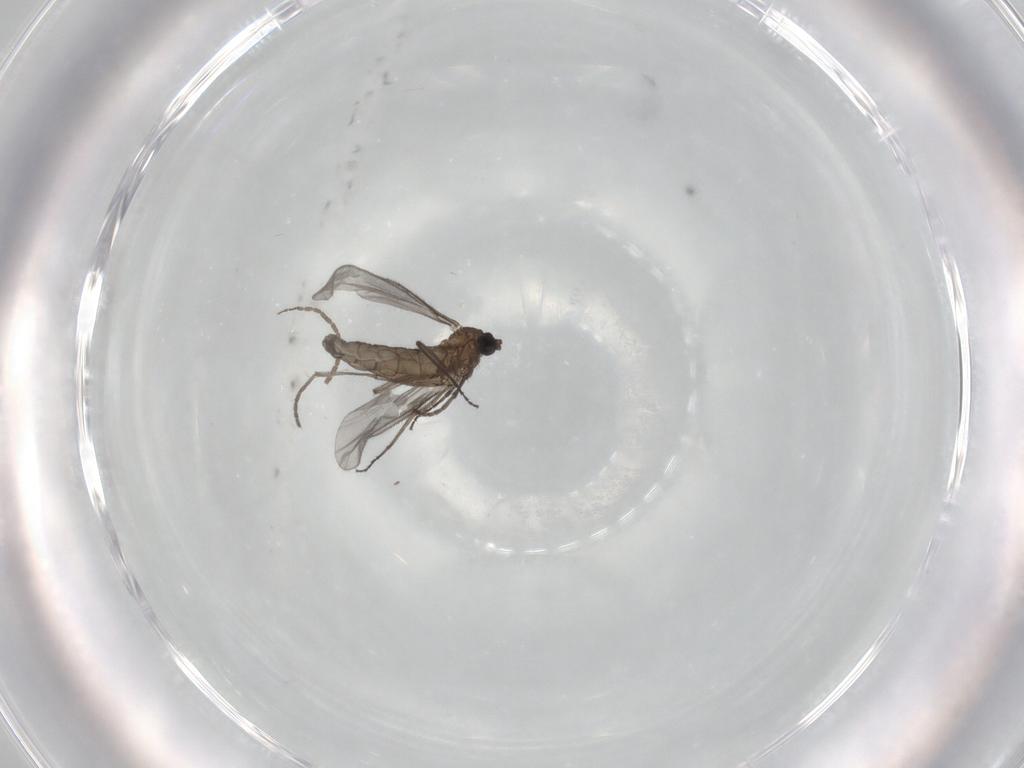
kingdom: Animalia
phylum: Arthropoda
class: Insecta
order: Diptera
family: Sciaridae
